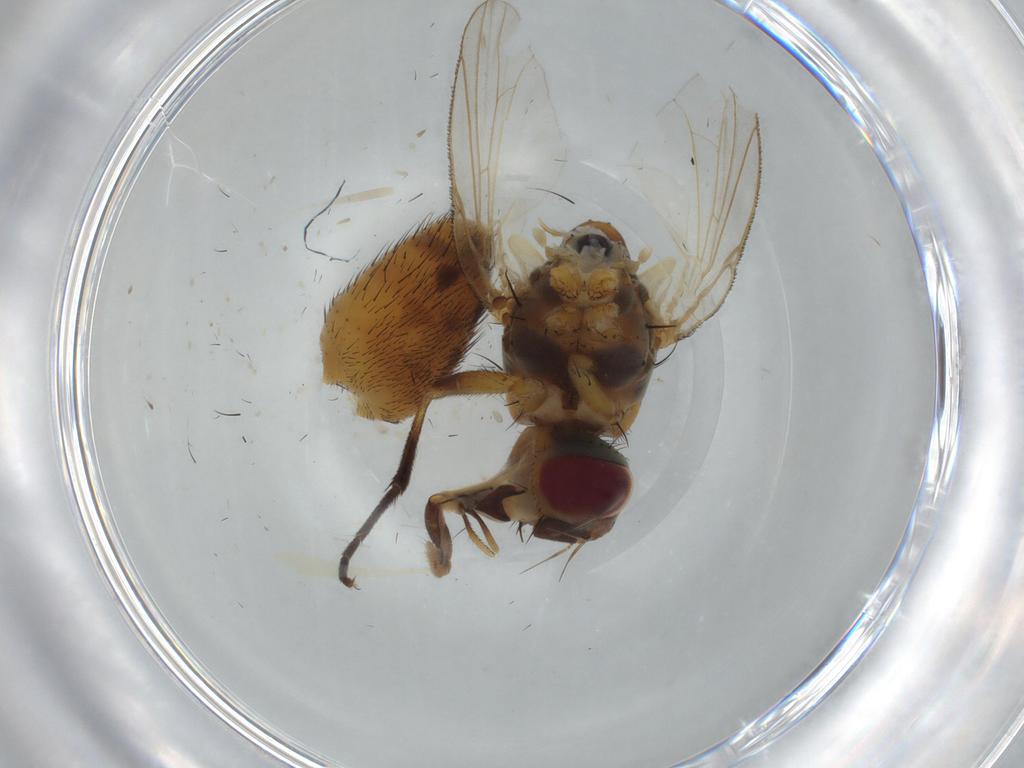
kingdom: Animalia
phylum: Arthropoda
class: Insecta
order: Diptera
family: Chironomidae
